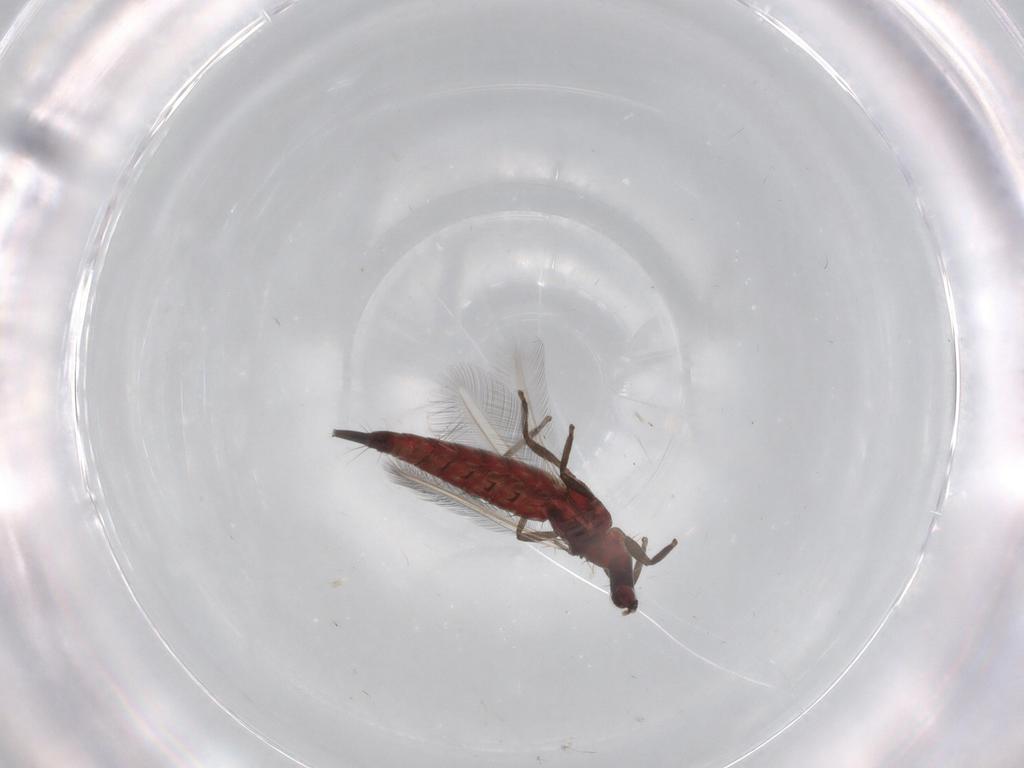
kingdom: Animalia
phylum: Arthropoda
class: Insecta
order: Thysanoptera
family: Phlaeothripidae
